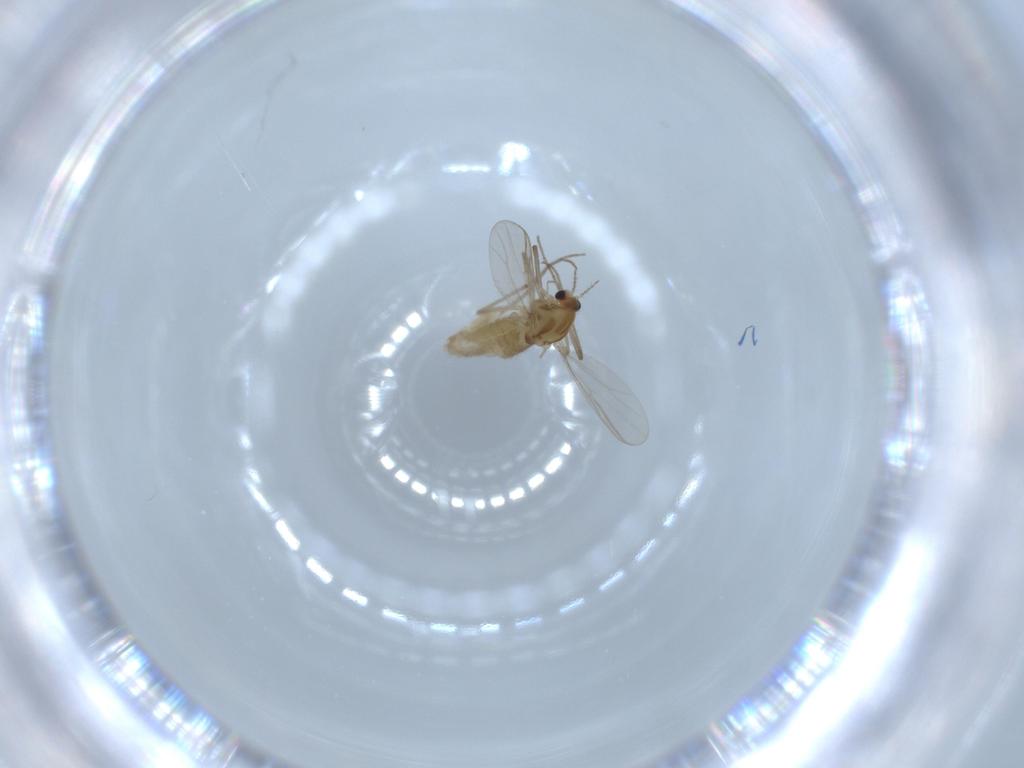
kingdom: Animalia
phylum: Arthropoda
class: Insecta
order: Diptera
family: Chironomidae
